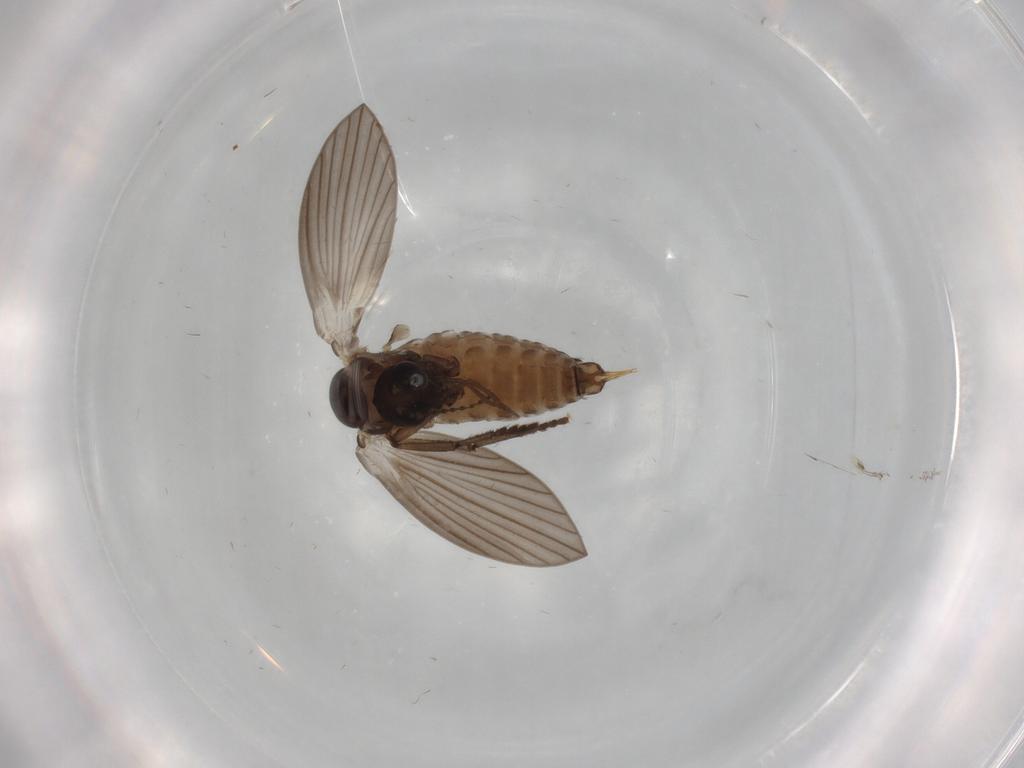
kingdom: Animalia
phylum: Arthropoda
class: Insecta
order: Diptera
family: Psychodidae
